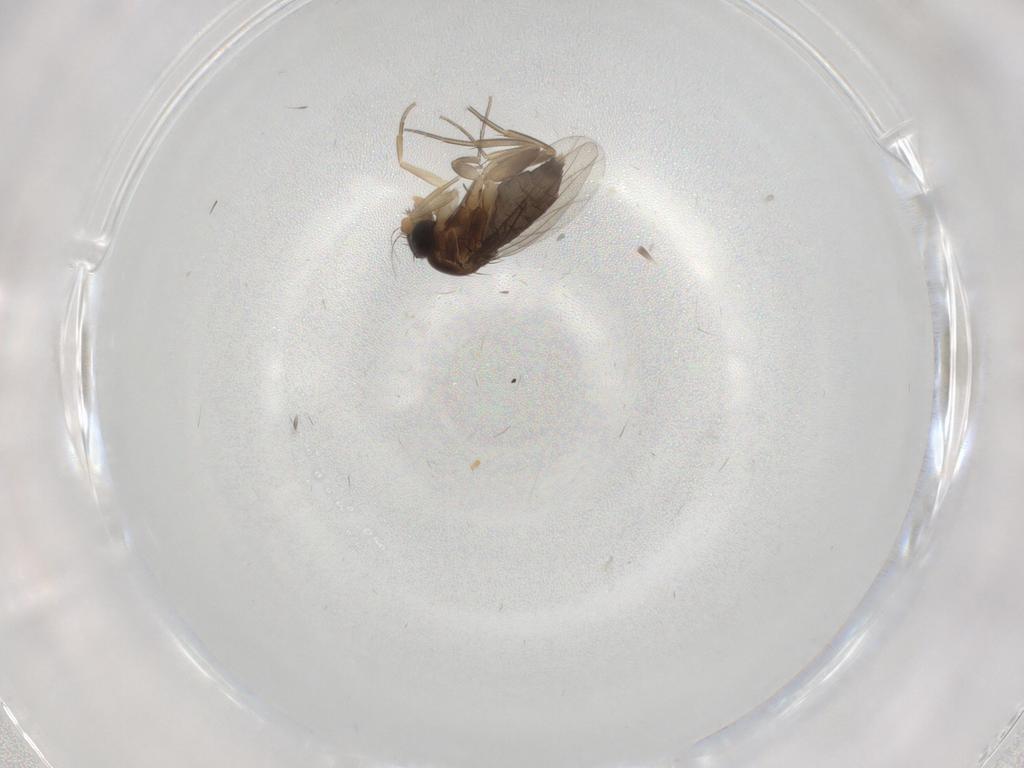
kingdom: Animalia
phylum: Arthropoda
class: Insecta
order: Diptera
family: Phoridae
